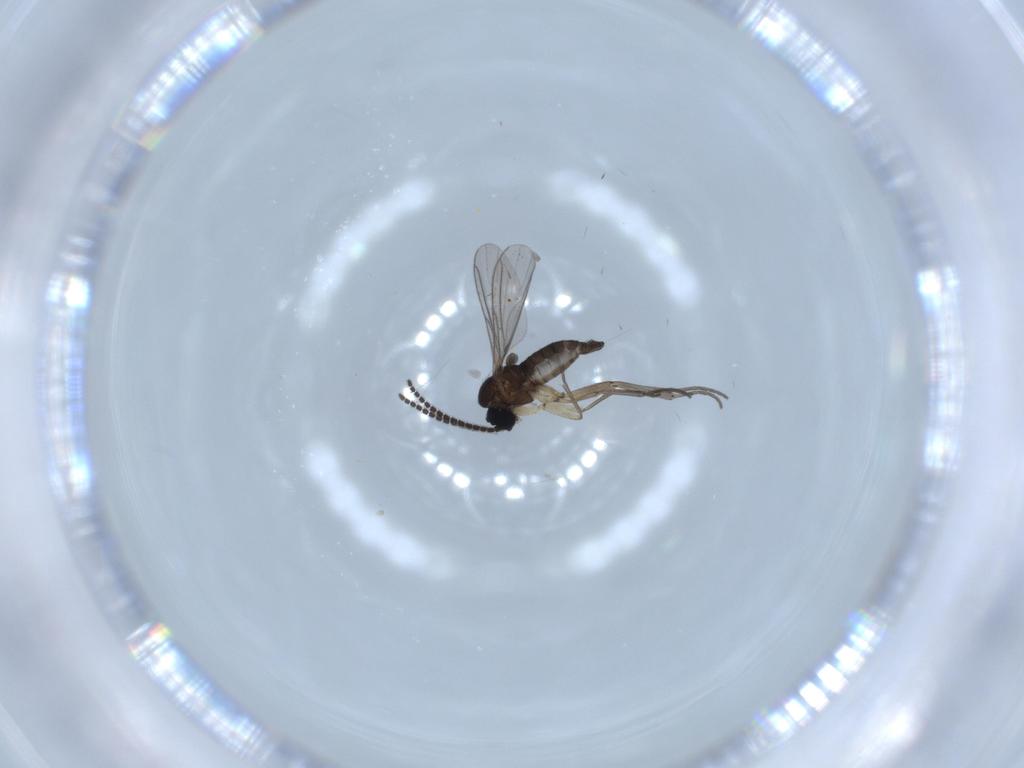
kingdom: Animalia
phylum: Arthropoda
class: Insecta
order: Diptera
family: Sciaridae
